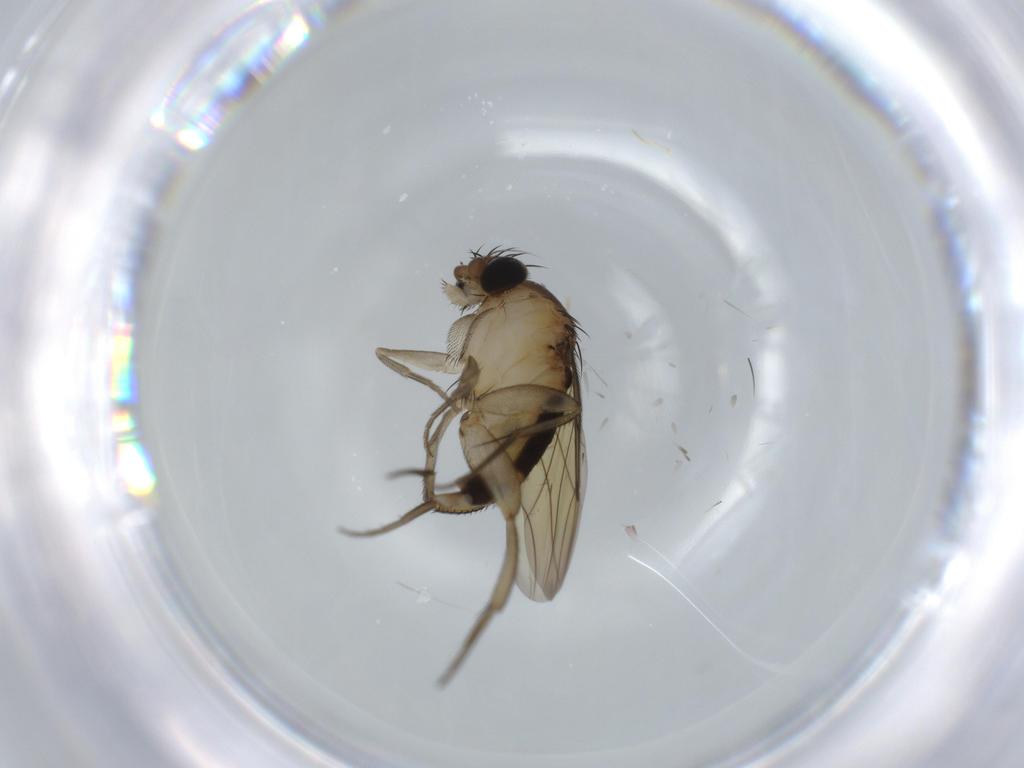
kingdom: Animalia
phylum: Arthropoda
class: Insecta
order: Diptera
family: Phoridae
